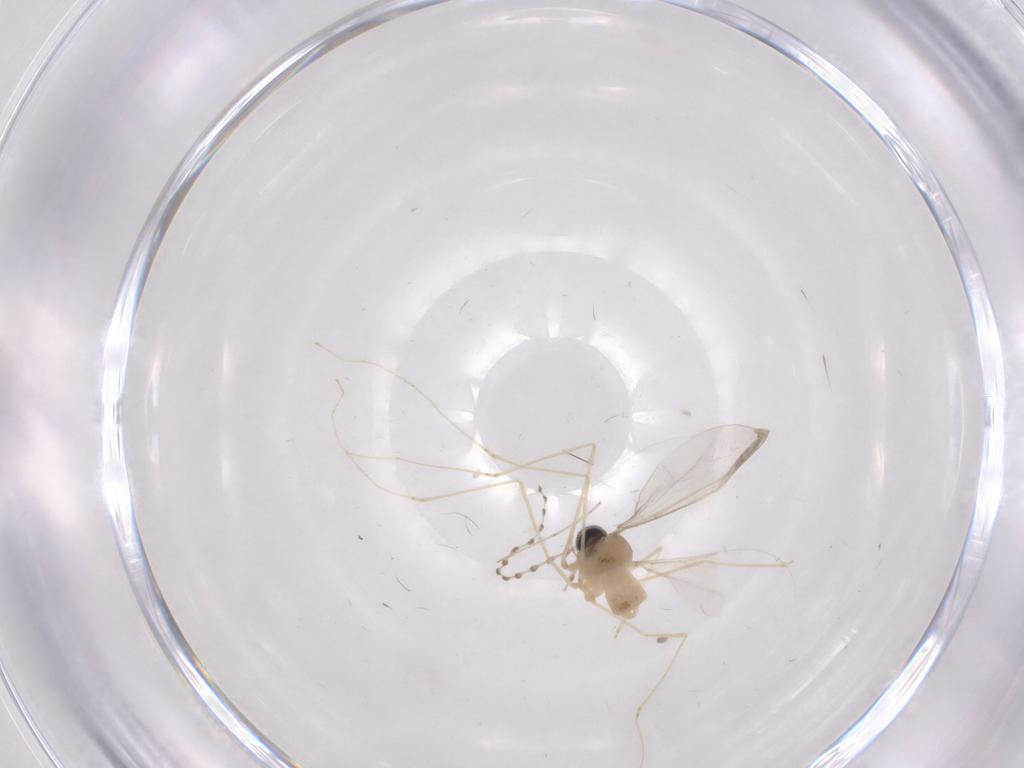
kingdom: Animalia
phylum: Arthropoda
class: Insecta
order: Diptera
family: Cecidomyiidae
